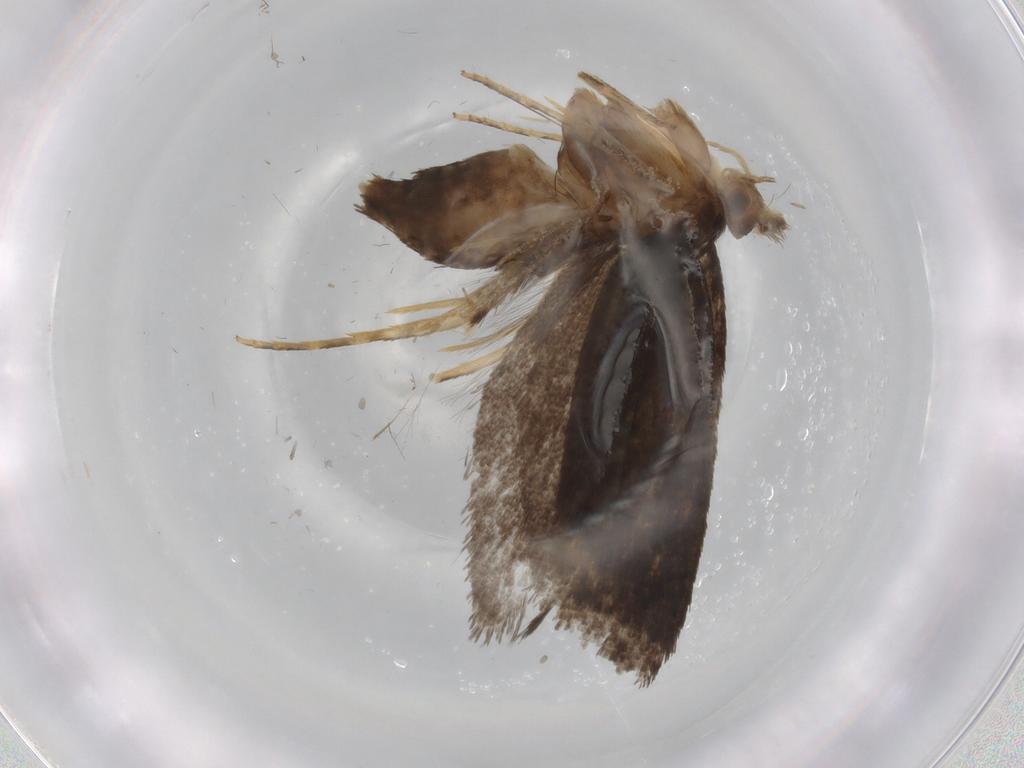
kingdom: Animalia
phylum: Arthropoda
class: Insecta
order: Lepidoptera
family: Tineidae
